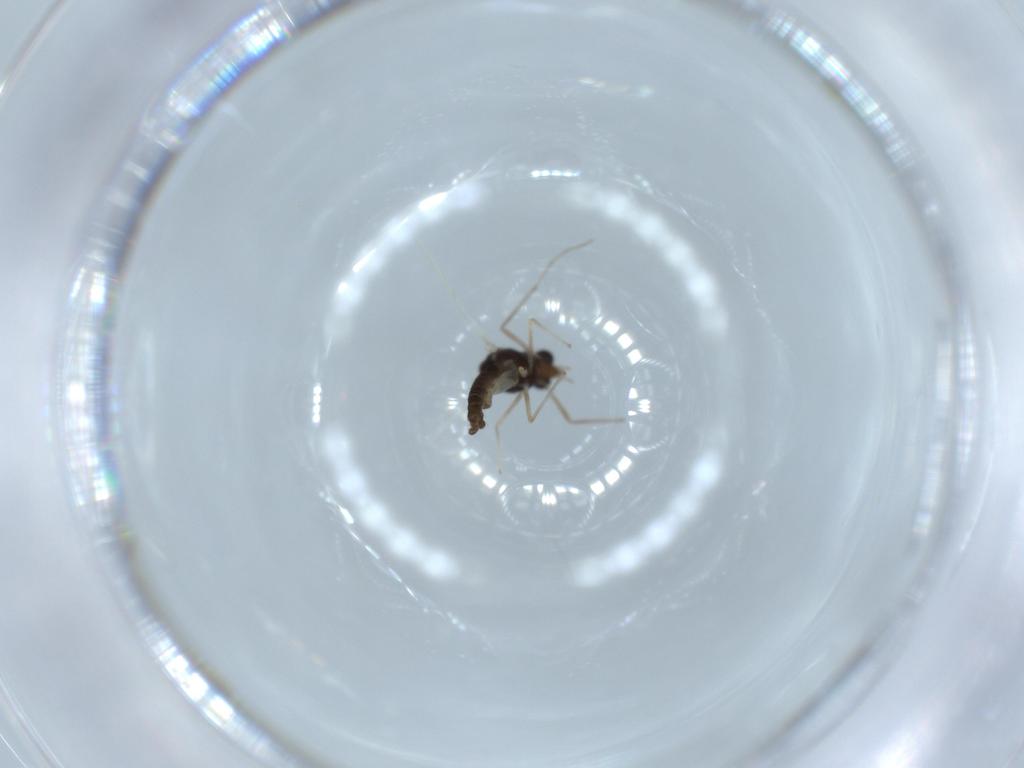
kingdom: Animalia
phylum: Arthropoda
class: Insecta
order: Diptera
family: Chironomidae
